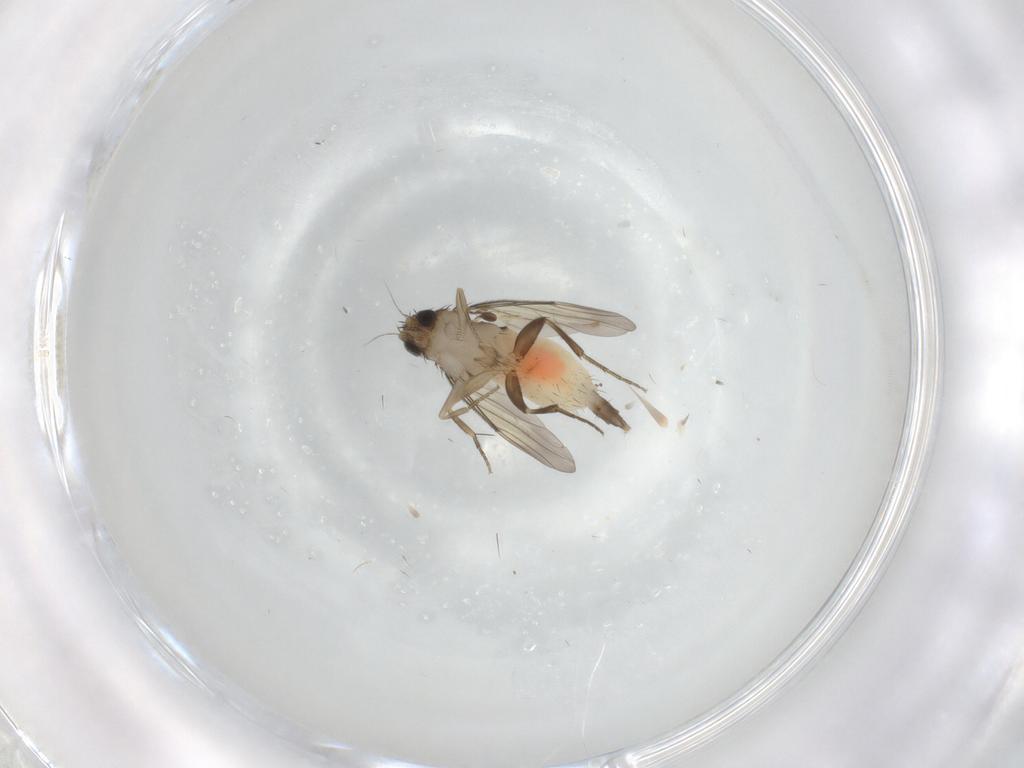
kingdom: Animalia
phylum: Arthropoda
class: Insecta
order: Diptera
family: Phoridae
